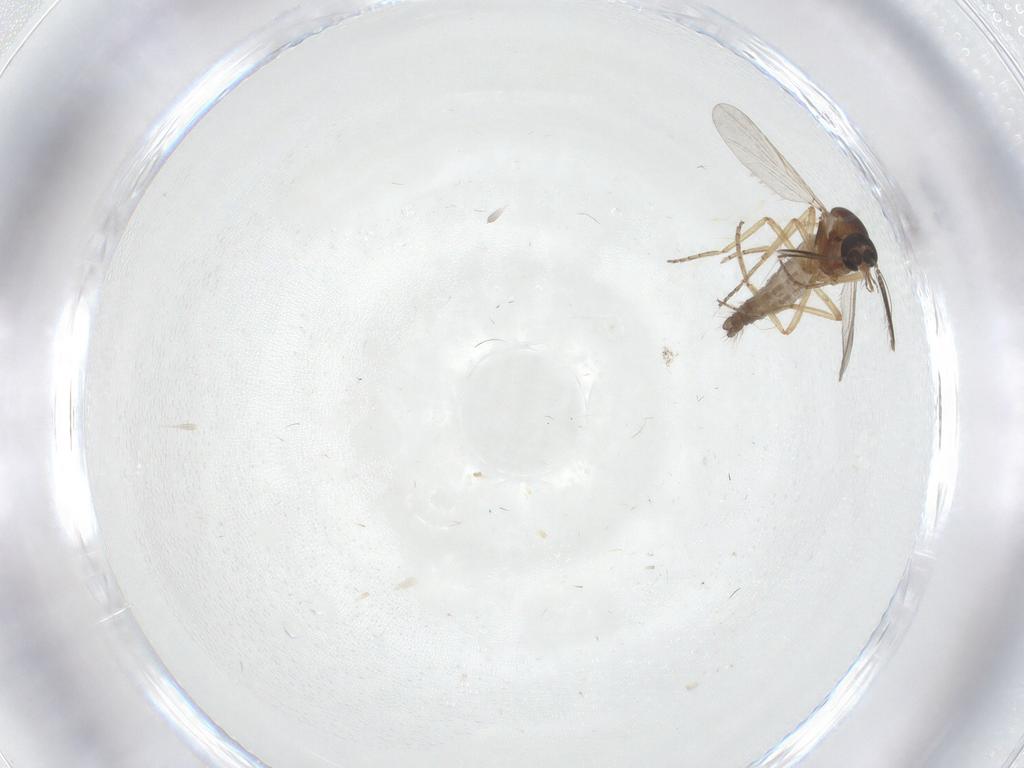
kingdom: Animalia
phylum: Arthropoda
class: Insecta
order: Diptera
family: Ceratopogonidae
